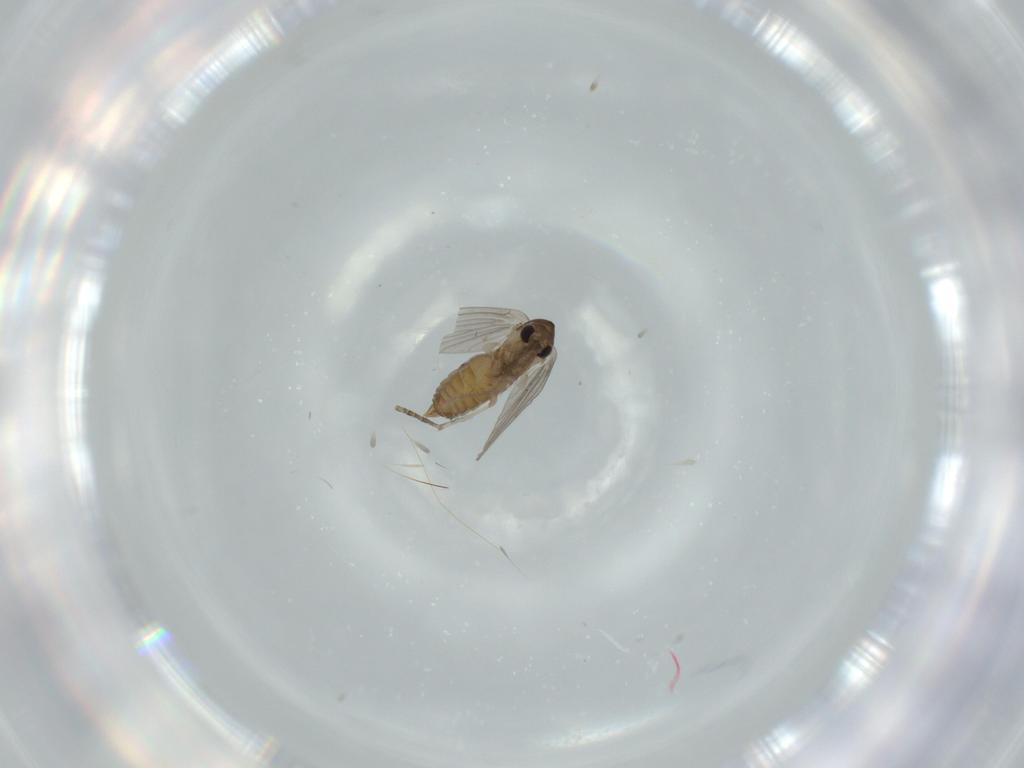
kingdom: Animalia
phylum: Arthropoda
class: Insecta
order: Diptera
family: Psychodidae
